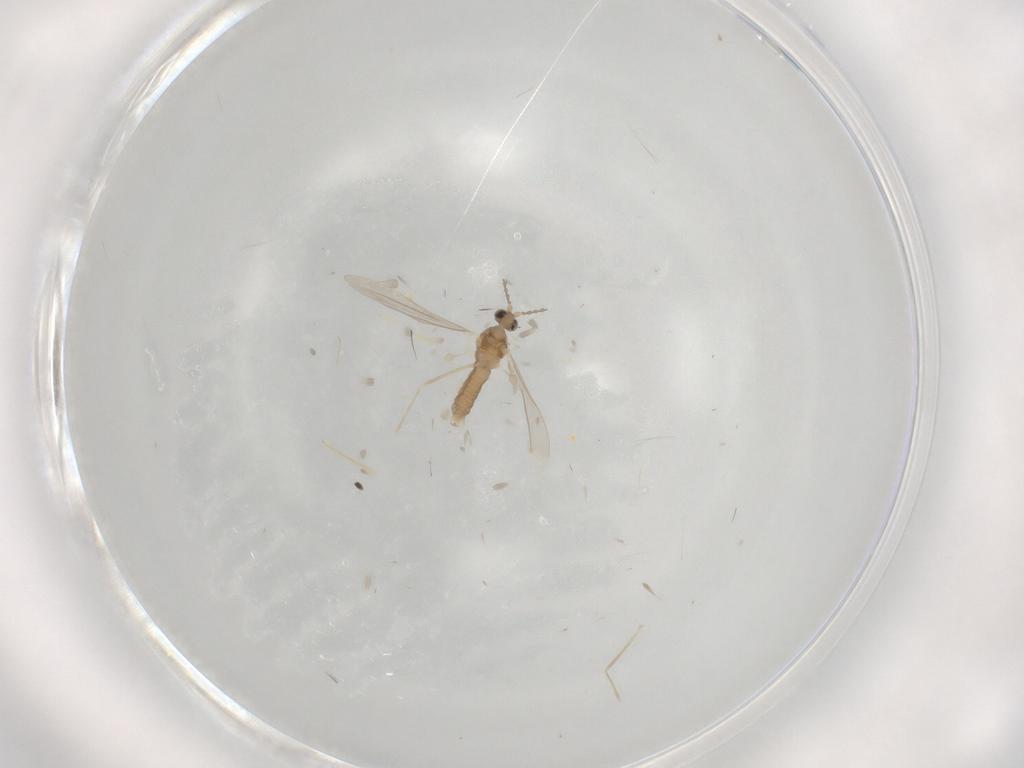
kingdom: Animalia
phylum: Arthropoda
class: Insecta
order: Diptera
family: Cecidomyiidae
